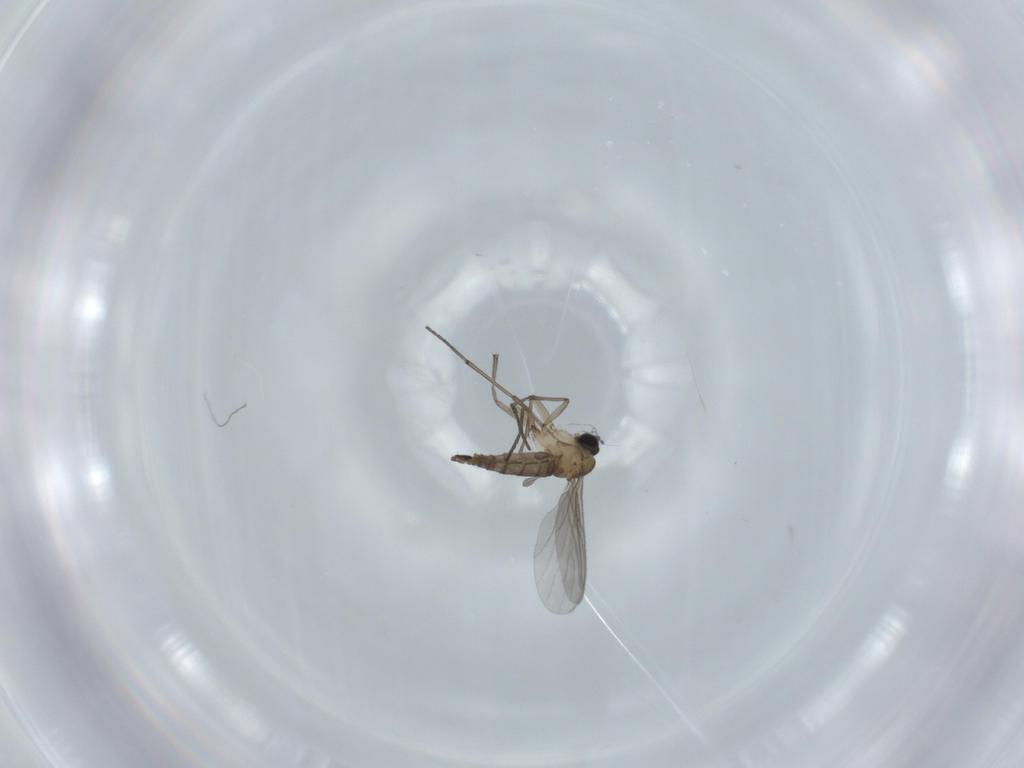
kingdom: Animalia
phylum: Arthropoda
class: Insecta
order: Diptera
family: Sciaridae
